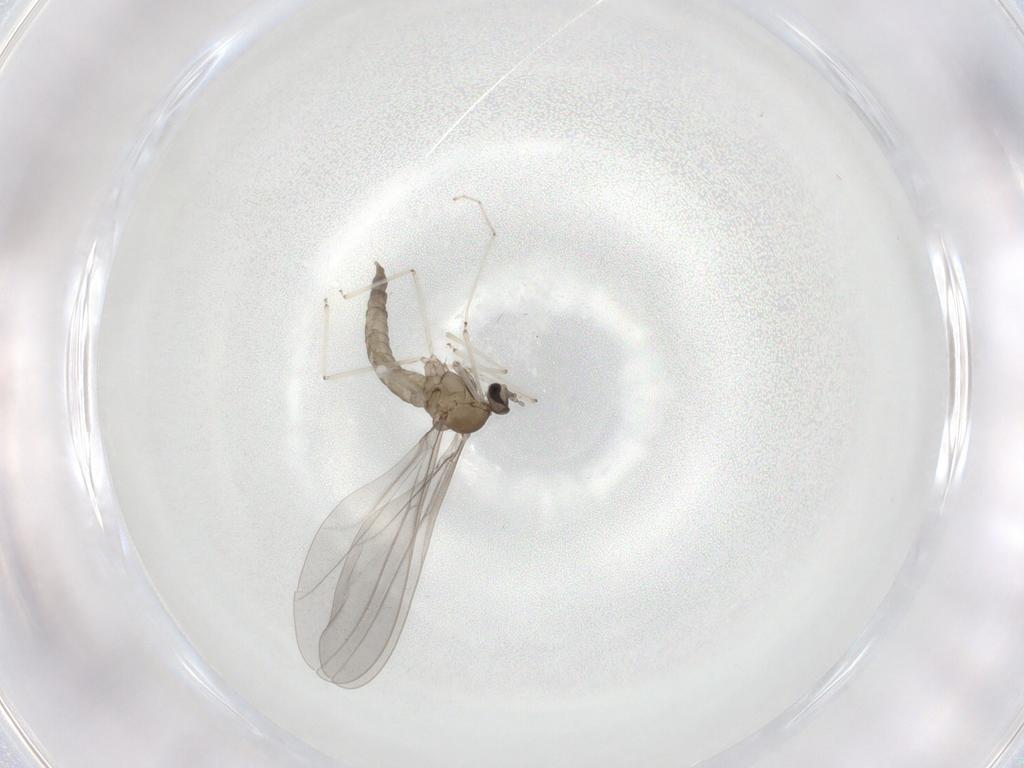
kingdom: Animalia
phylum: Arthropoda
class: Insecta
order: Diptera
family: Cecidomyiidae
